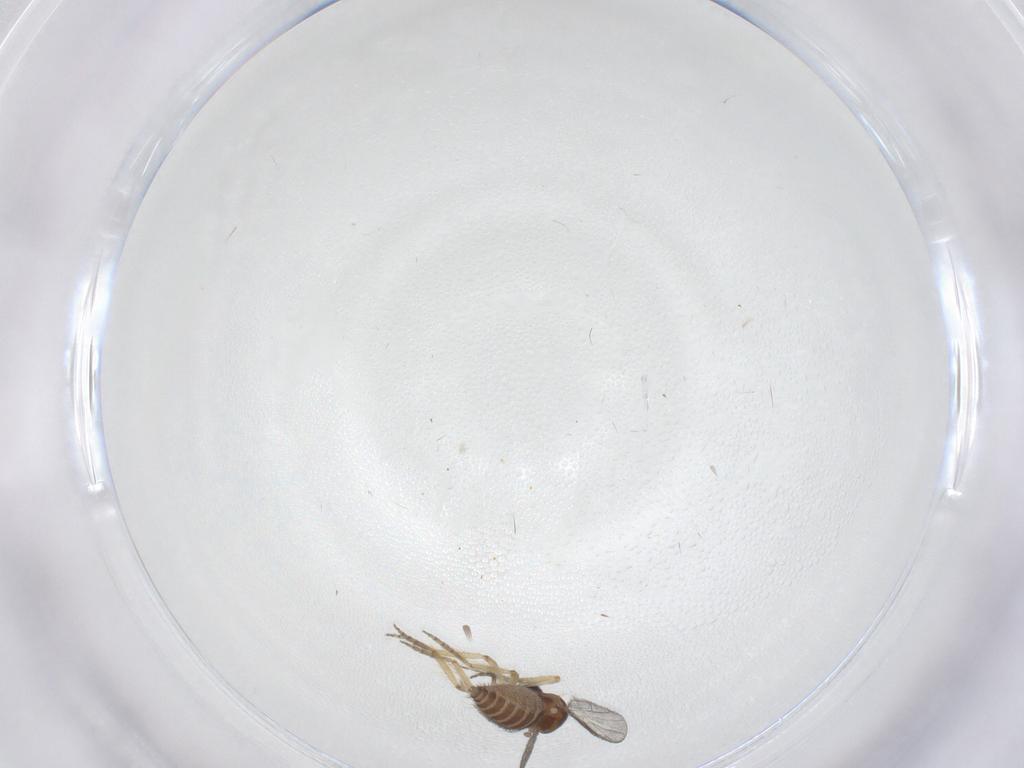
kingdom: Animalia
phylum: Arthropoda
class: Insecta
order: Diptera
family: Ceratopogonidae
